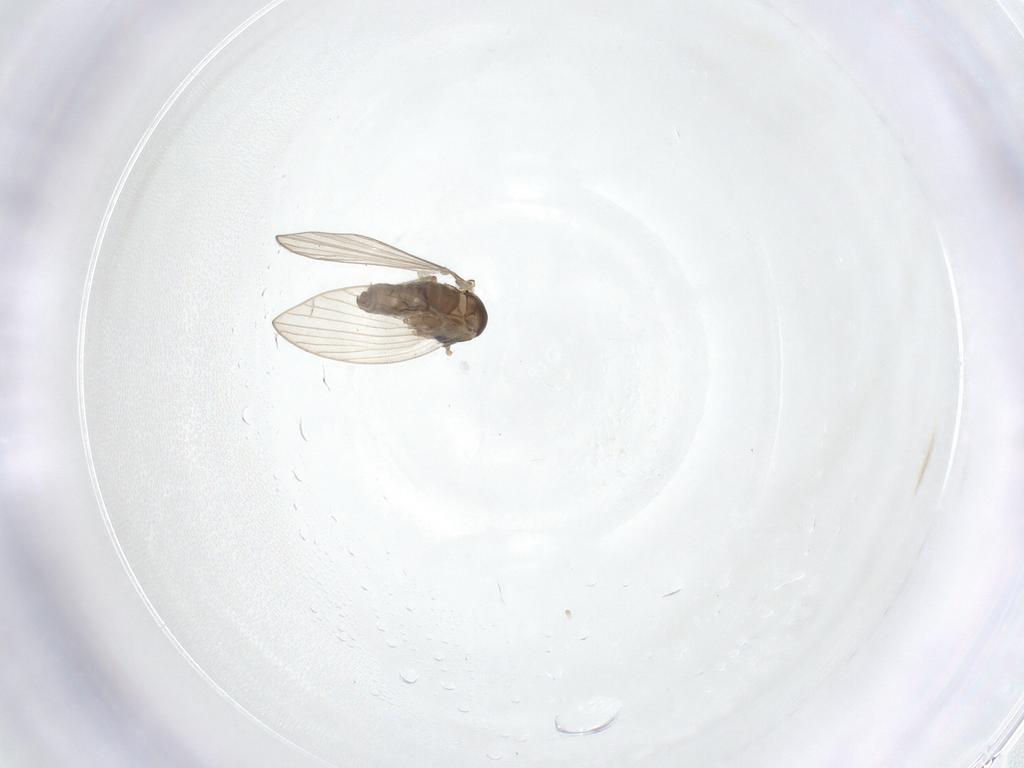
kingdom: Animalia
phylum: Arthropoda
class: Insecta
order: Diptera
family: Psychodidae
